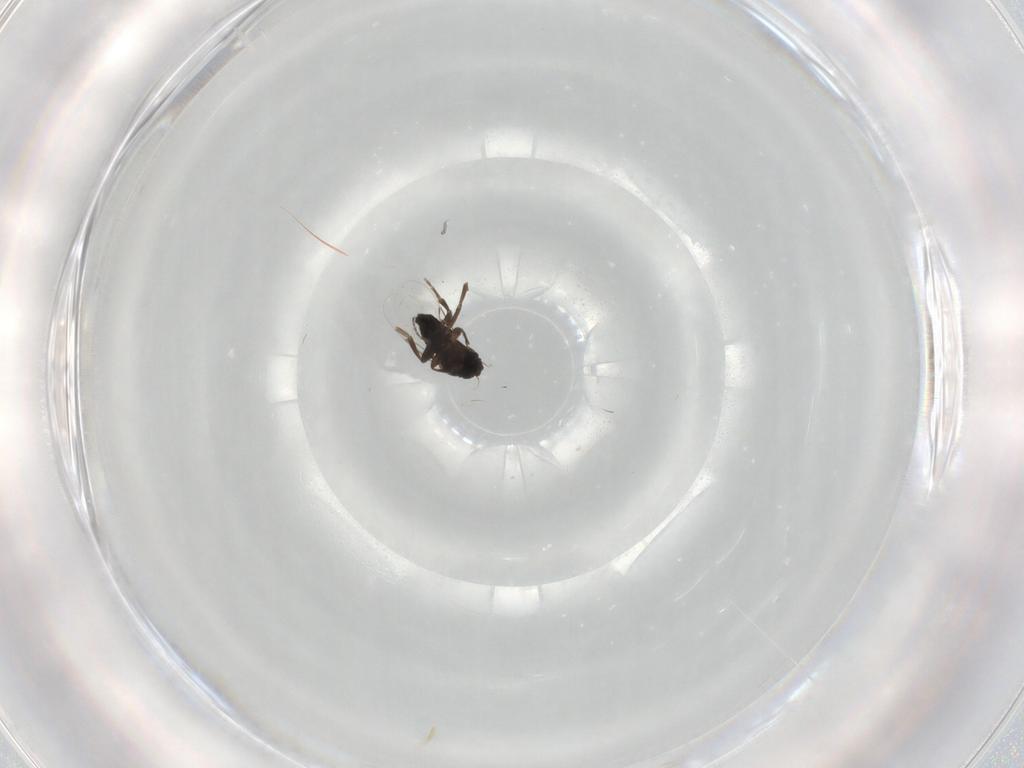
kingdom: Animalia
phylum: Arthropoda
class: Insecta
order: Diptera
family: Phoridae
